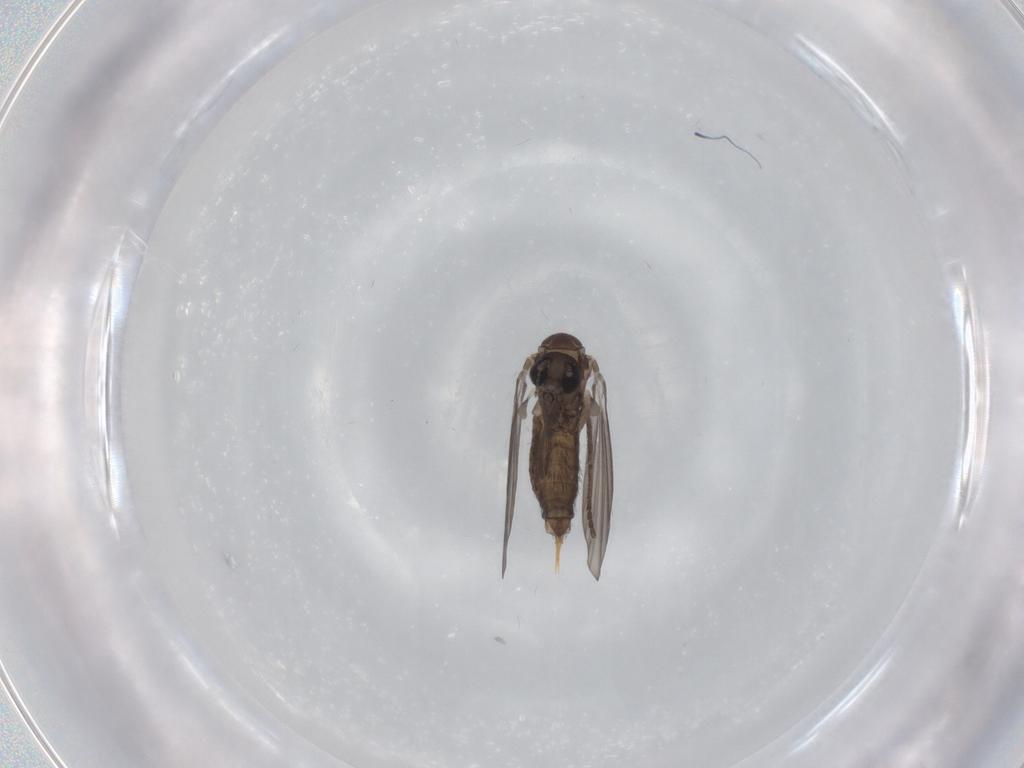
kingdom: Animalia
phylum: Arthropoda
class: Insecta
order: Diptera
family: Psychodidae
